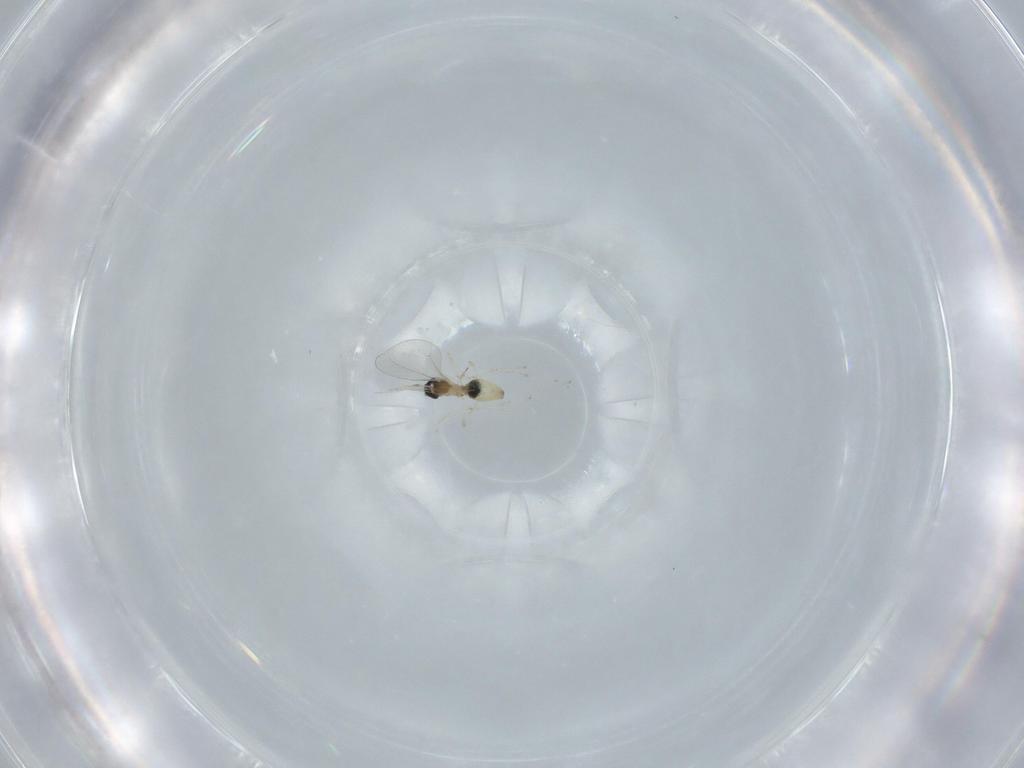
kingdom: Animalia
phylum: Arthropoda
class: Insecta
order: Diptera
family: Cecidomyiidae
